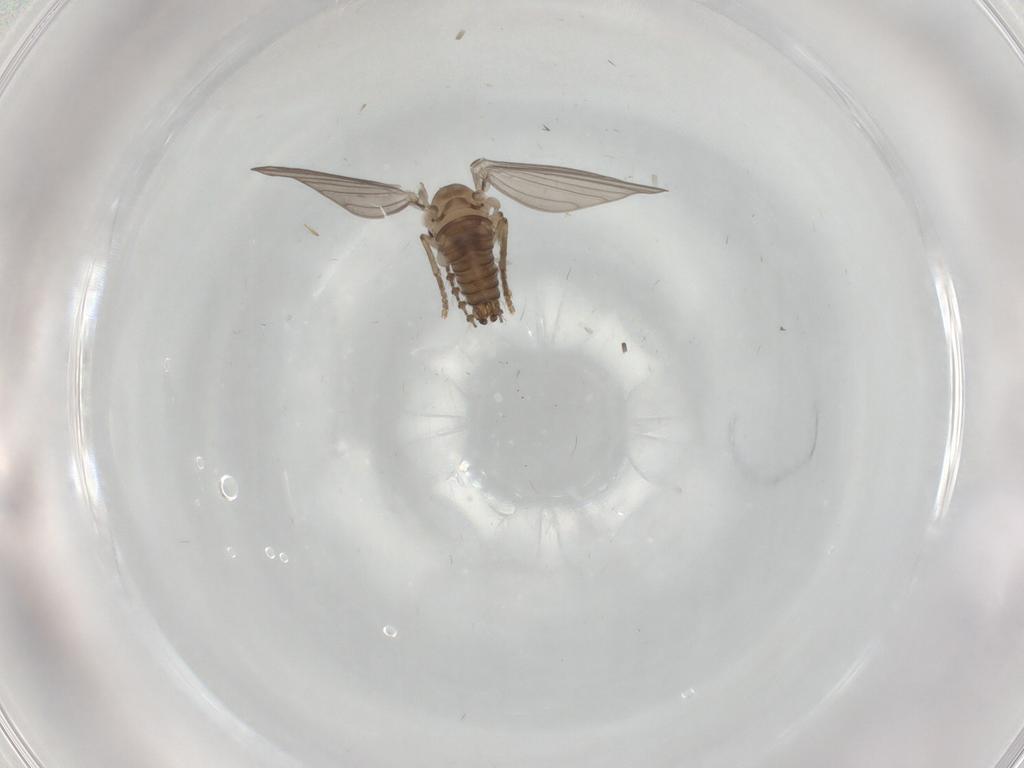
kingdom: Animalia
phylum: Arthropoda
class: Insecta
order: Diptera
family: Psychodidae
